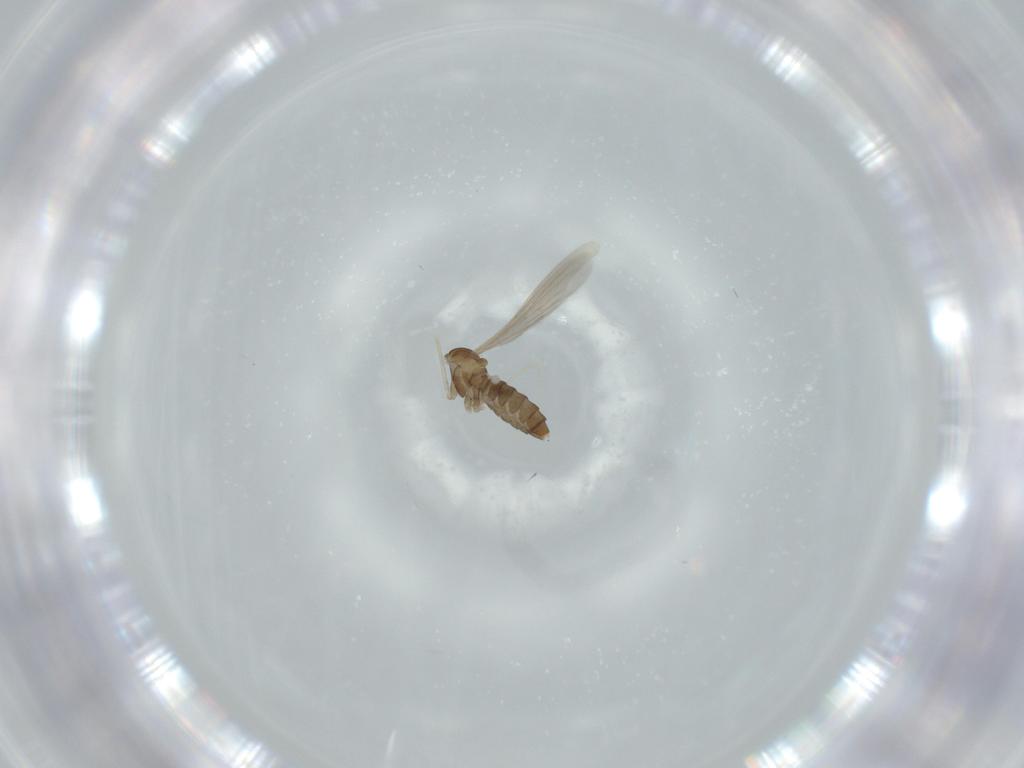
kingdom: Animalia
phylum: Arthropoda
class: Insecta
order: Diptera
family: Drosophilidae
